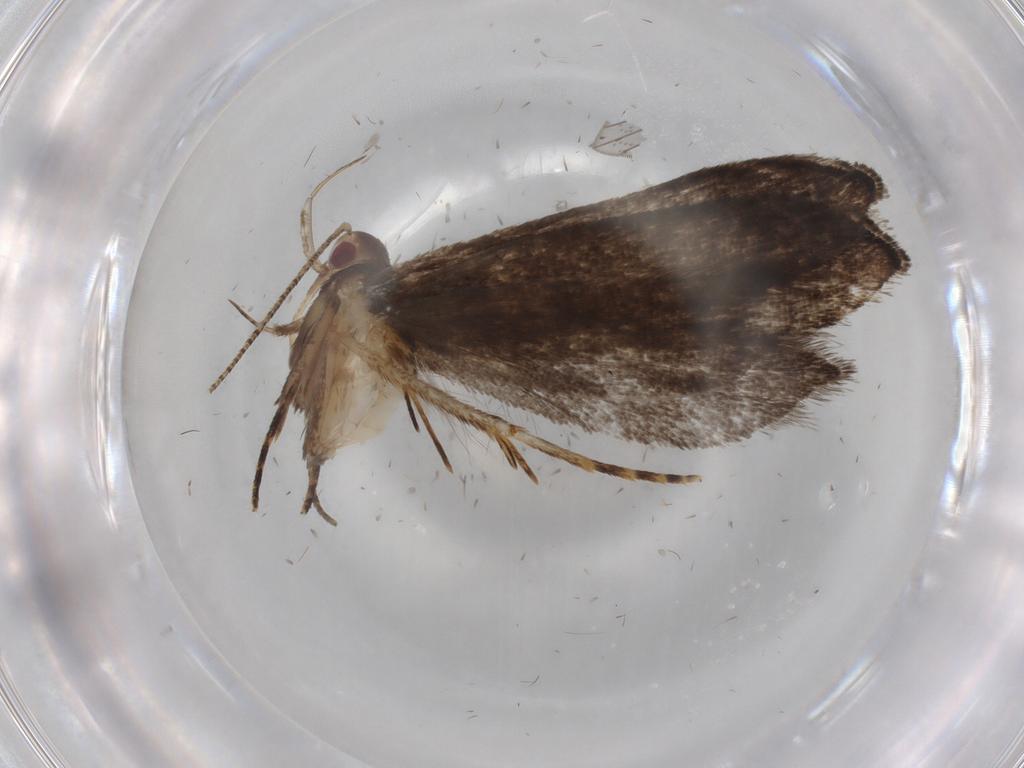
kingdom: Animalia
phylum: Arthropoda
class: Insecta
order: Lepidoptera
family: Gelechiidae
